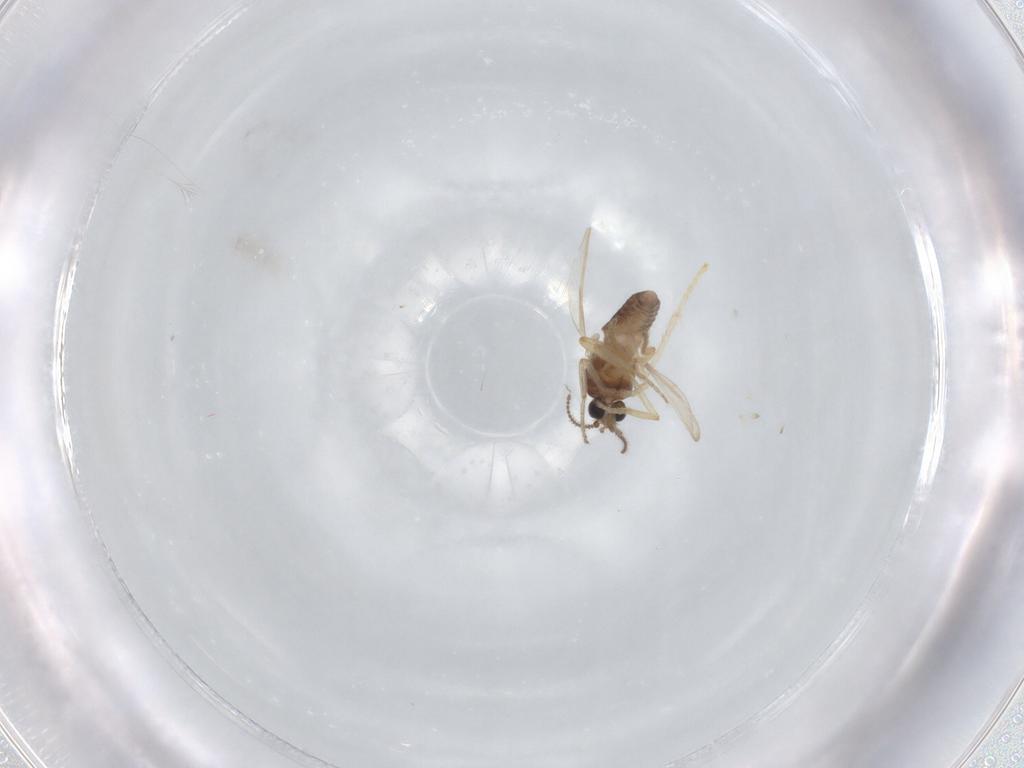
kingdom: Animalia
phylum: Arthropoda
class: Insecta
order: Diptera
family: Ceratopogonidae
